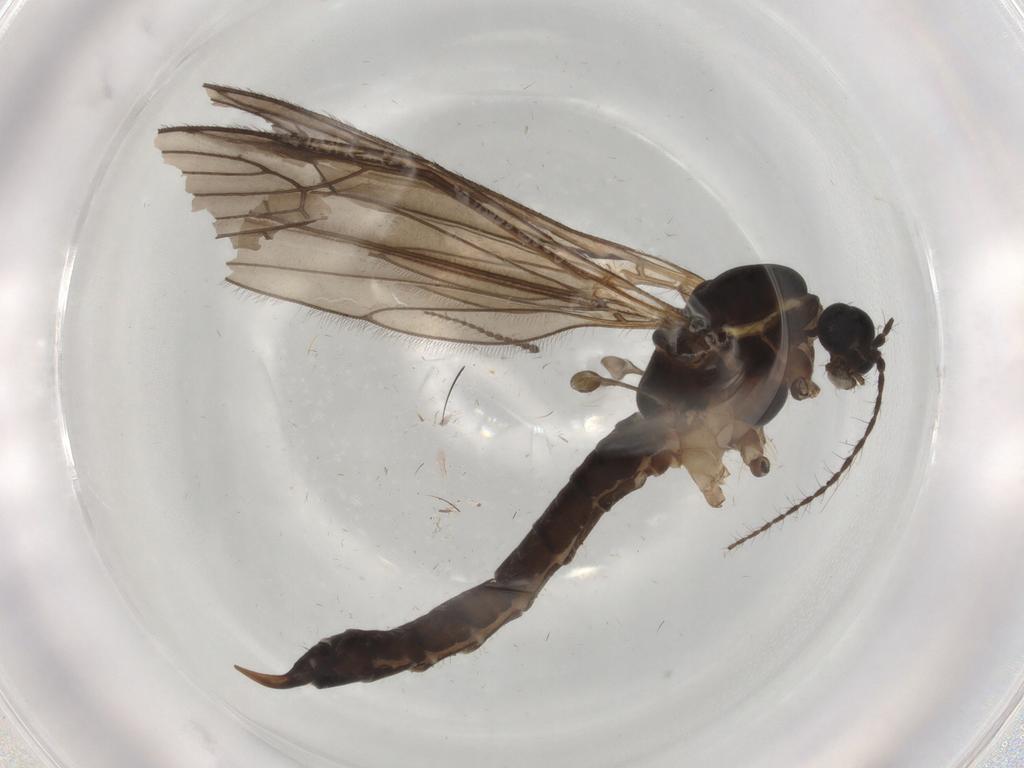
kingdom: Animalia
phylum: Arthropoda
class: Insecta
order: Diptera
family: Limoniidae
